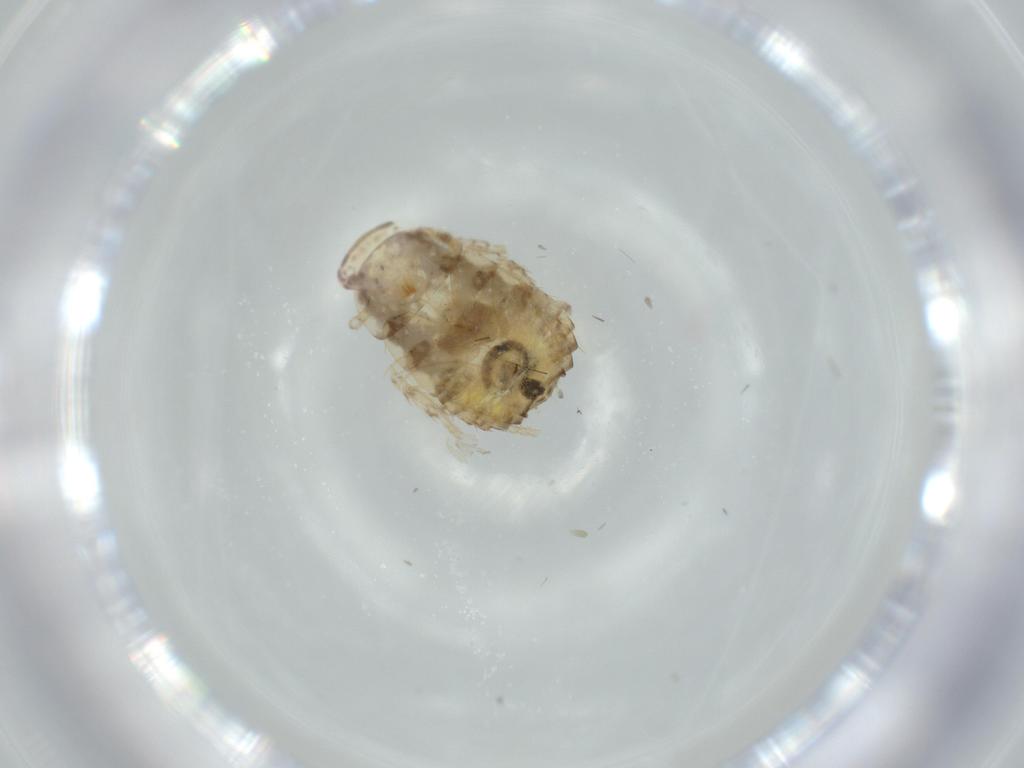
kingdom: Animalia
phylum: Arthropoda
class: Insecta
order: Blattodea
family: Ectobiidae
